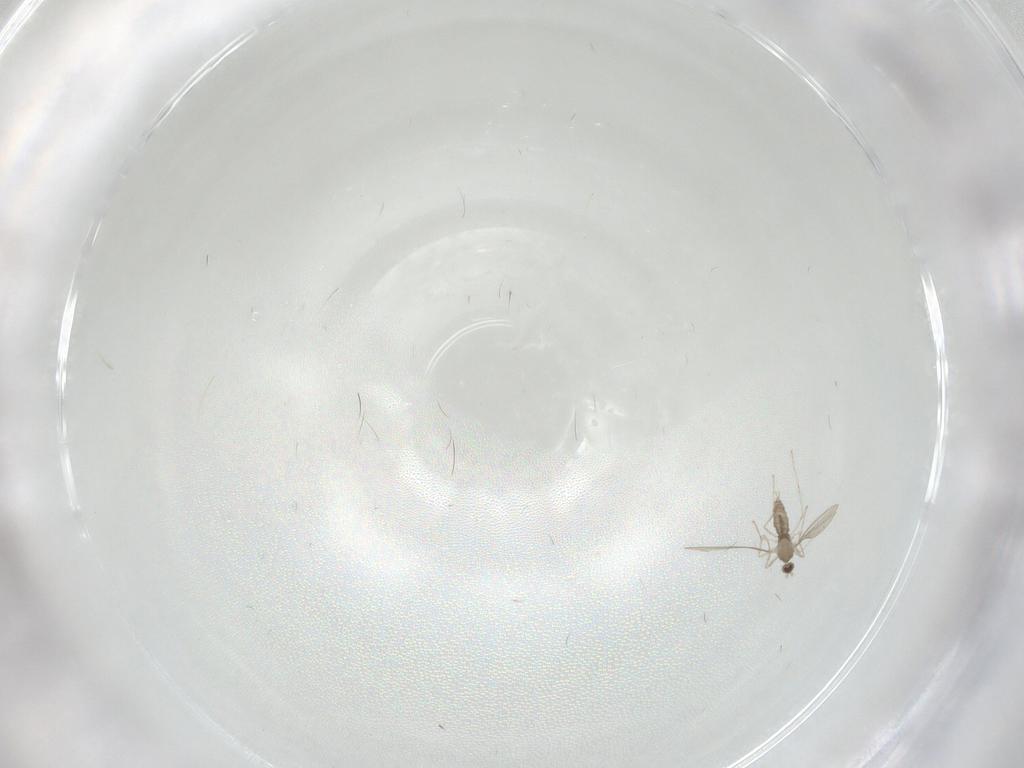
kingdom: Animalia
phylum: Arthropoda
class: Insecta
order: Diptera
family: Cecidomyiidae
